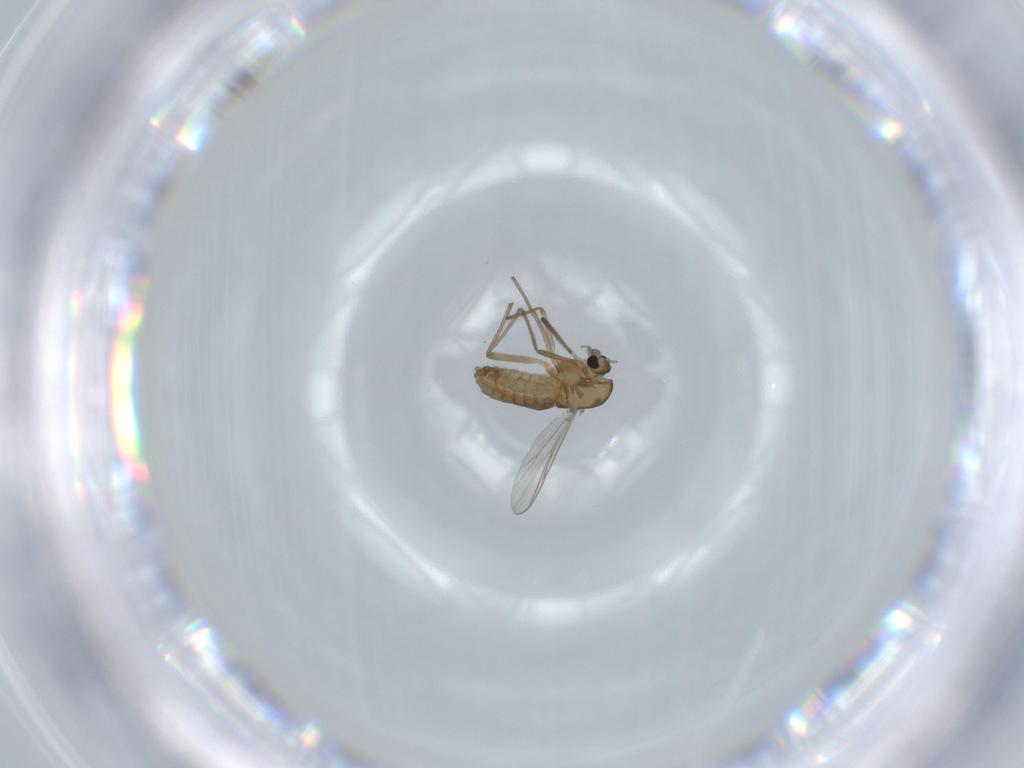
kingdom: Animalia
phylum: Arthropoda
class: Insecta
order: Diptera
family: Chironomidae
